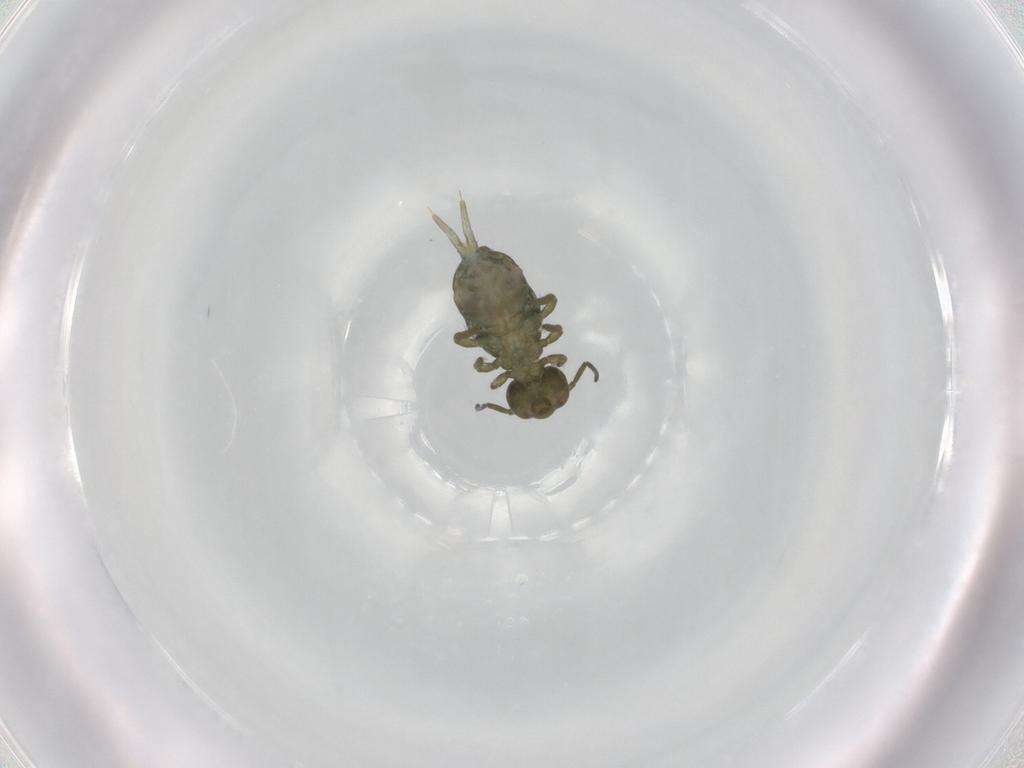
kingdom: Animalia
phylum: Arthropoda
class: Collembola
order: Symphypleona
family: Sminthuridae
